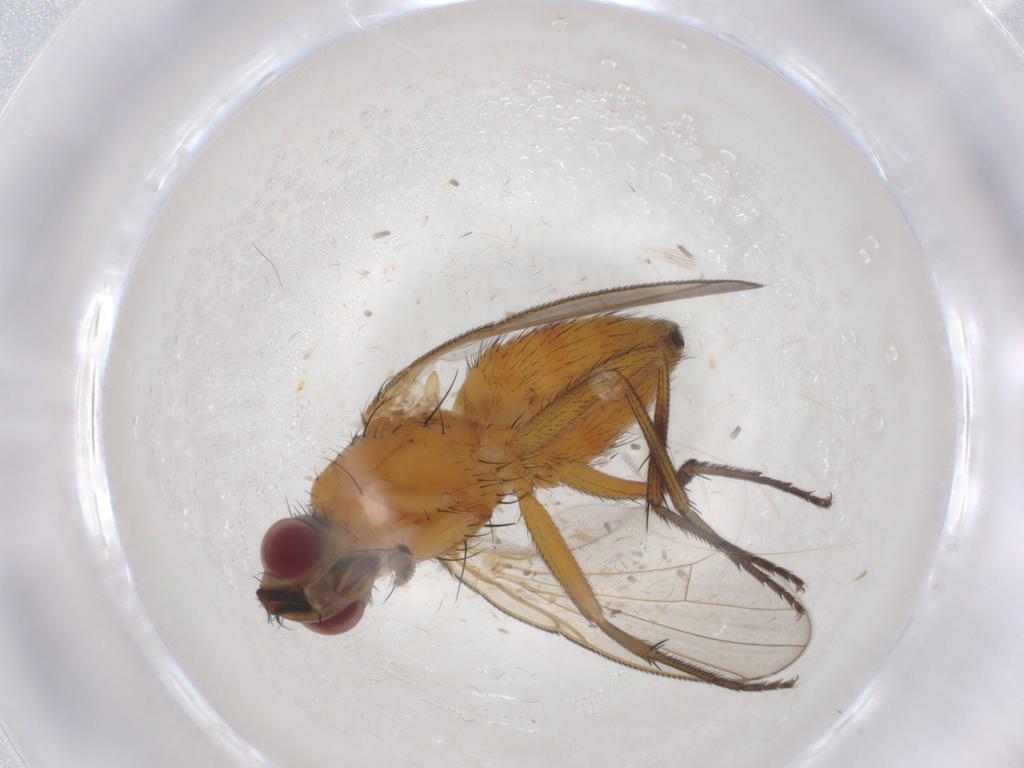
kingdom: Animalia
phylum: Arthropoda
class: Insecta
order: Diptera
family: Muscidae
